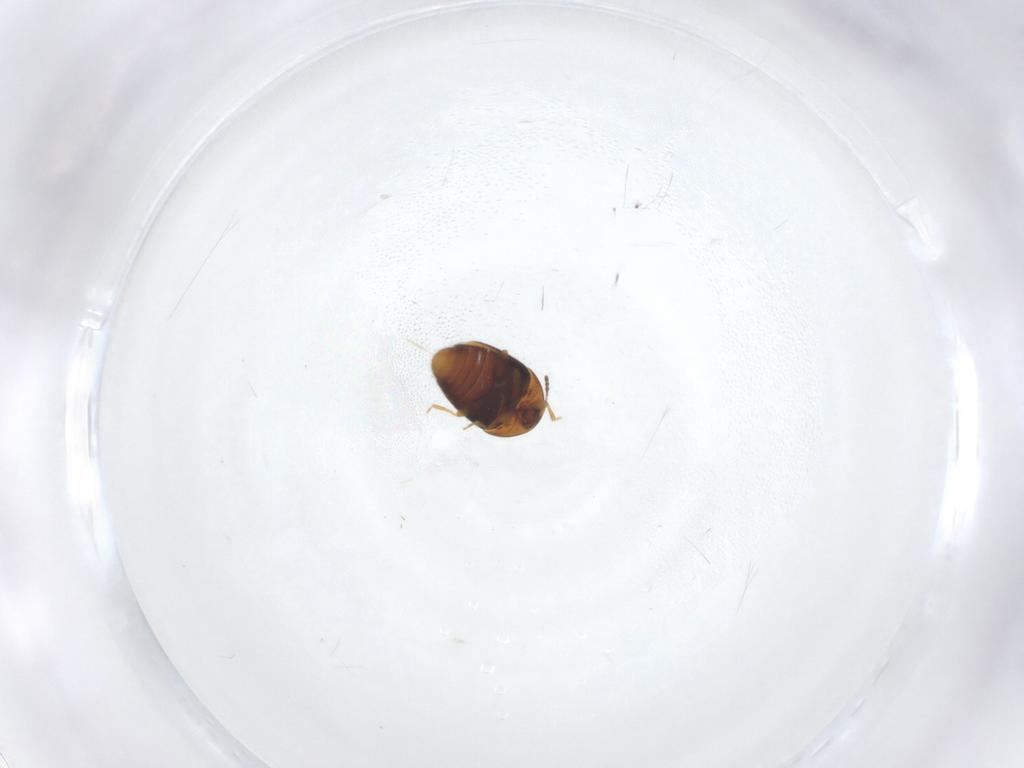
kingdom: Animalia
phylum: Arthropoda
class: Insecta
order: Coleoptera
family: Corylophidae
